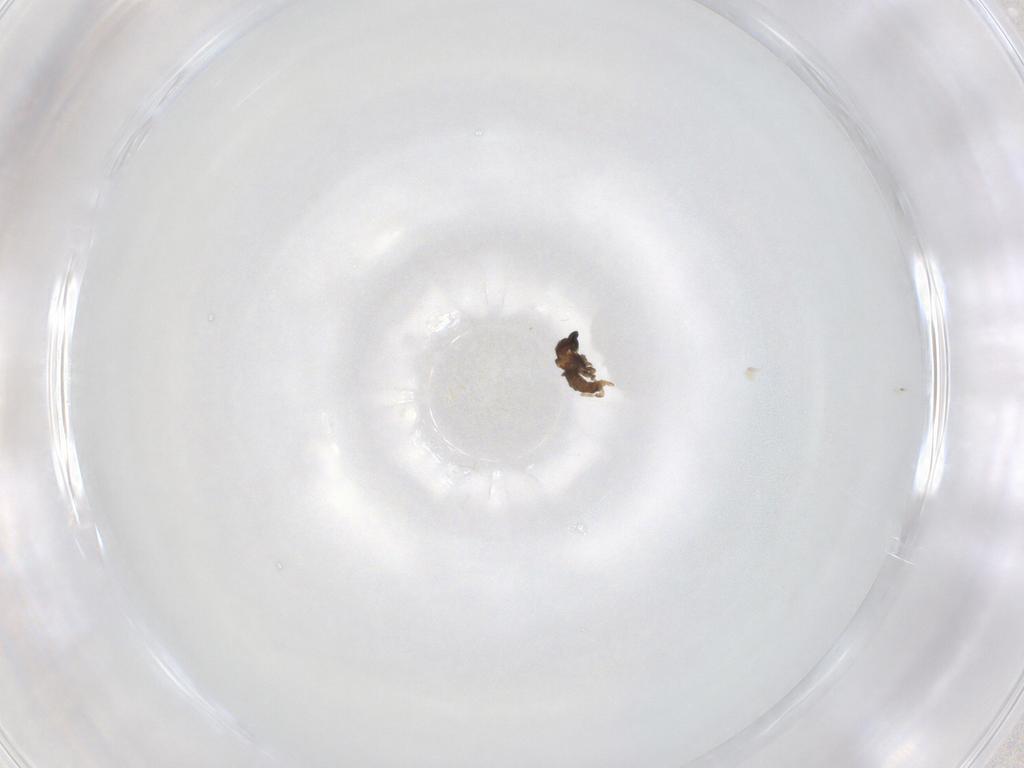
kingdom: Animalia
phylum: Arthropoda
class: Insecta
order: Diptera
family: Cecidomyiidae
